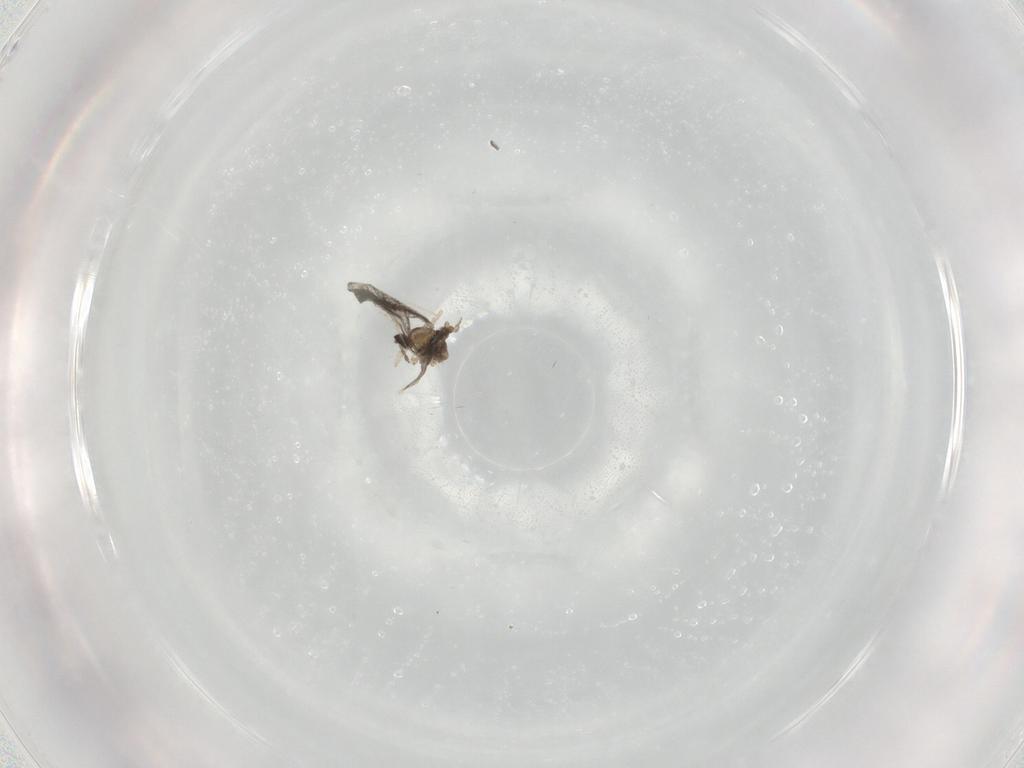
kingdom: Animalia
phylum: Arthropoda
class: Insecta
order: Diptera
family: Cecidomyiidae
